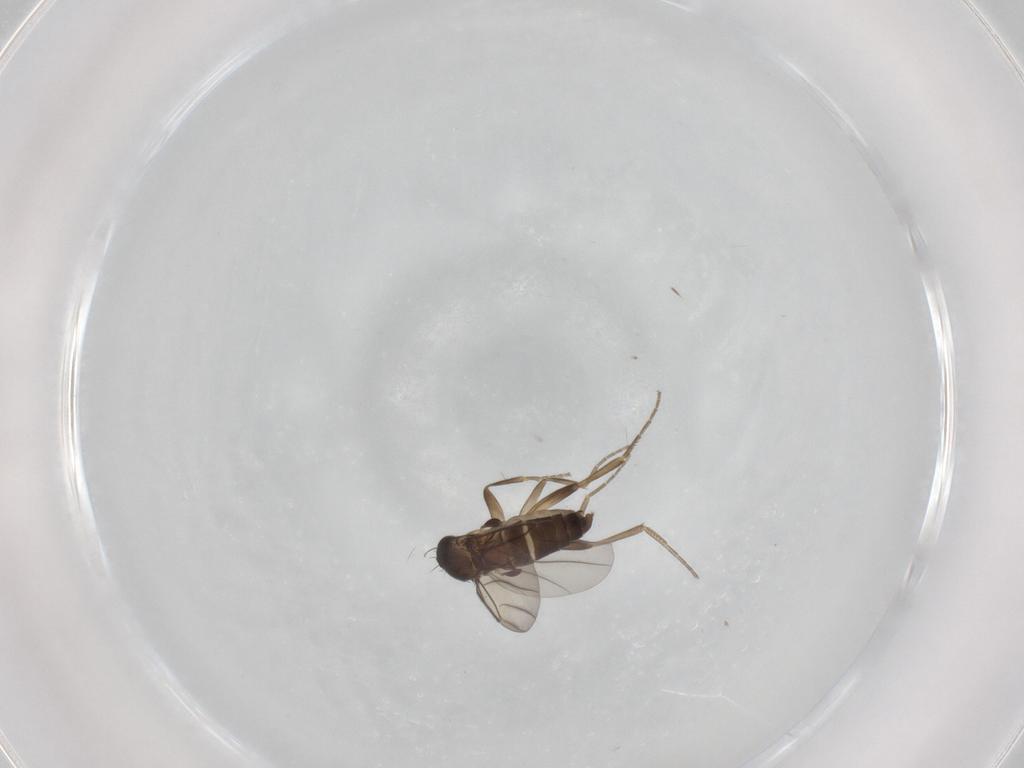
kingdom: Animalia
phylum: Arthropoda
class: Insecta
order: Diptera
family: Phoridae
